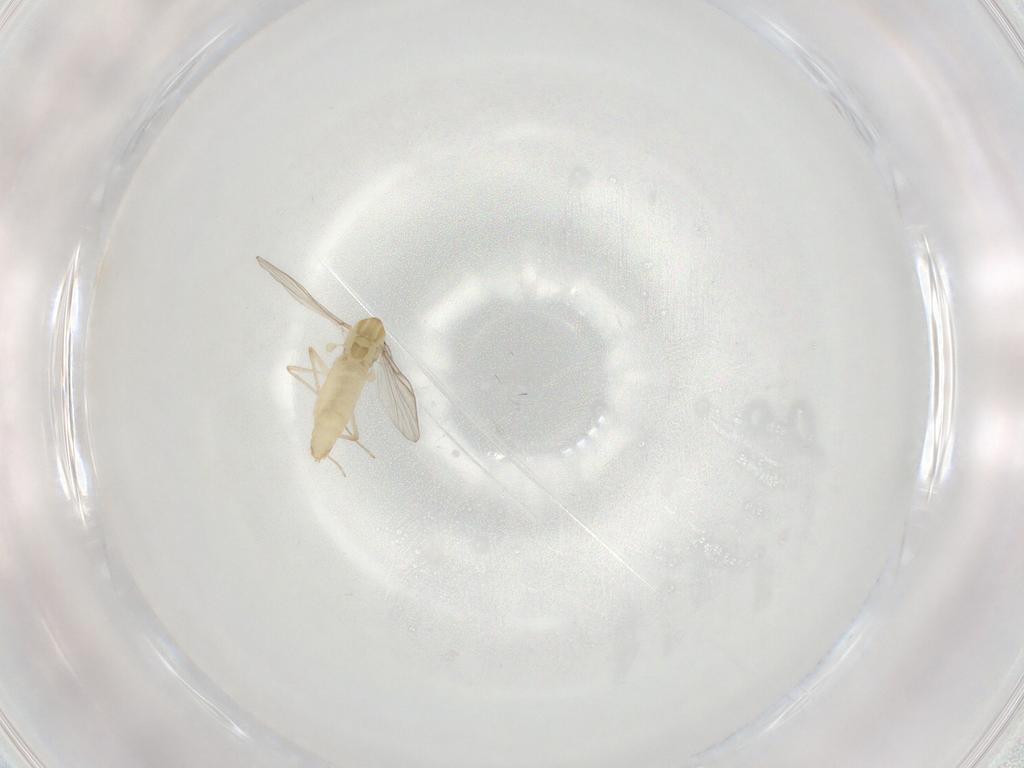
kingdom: Animalia
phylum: Arthropoda
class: Insecta
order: Diptera
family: Chironomidae
